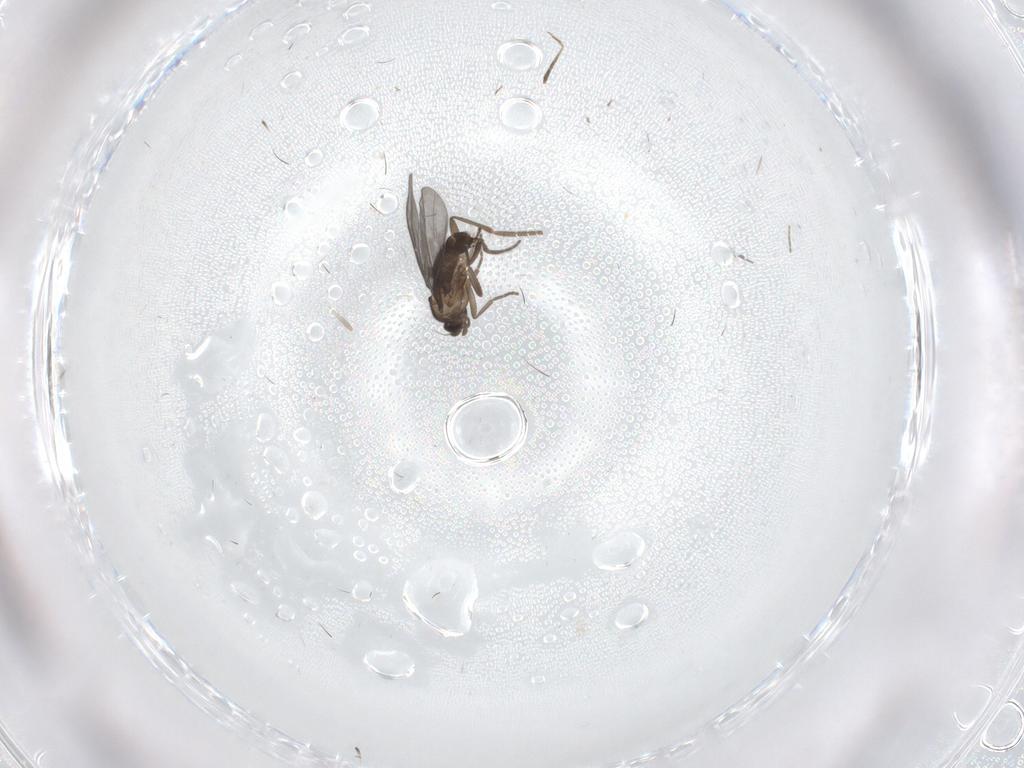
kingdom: Animalia
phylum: Arthropoda
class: Insecta
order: Diptera
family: Phoridae
